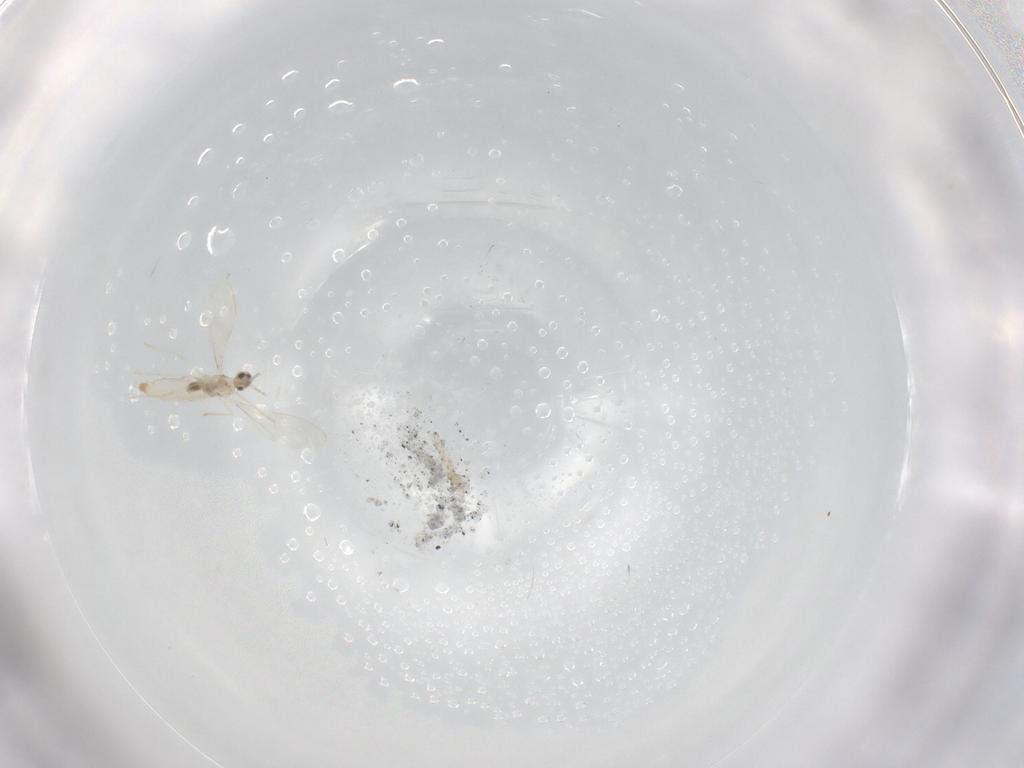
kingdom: Animalia
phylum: Arthropoda
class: Insecta
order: Diptera
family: Cecidomyiidae
